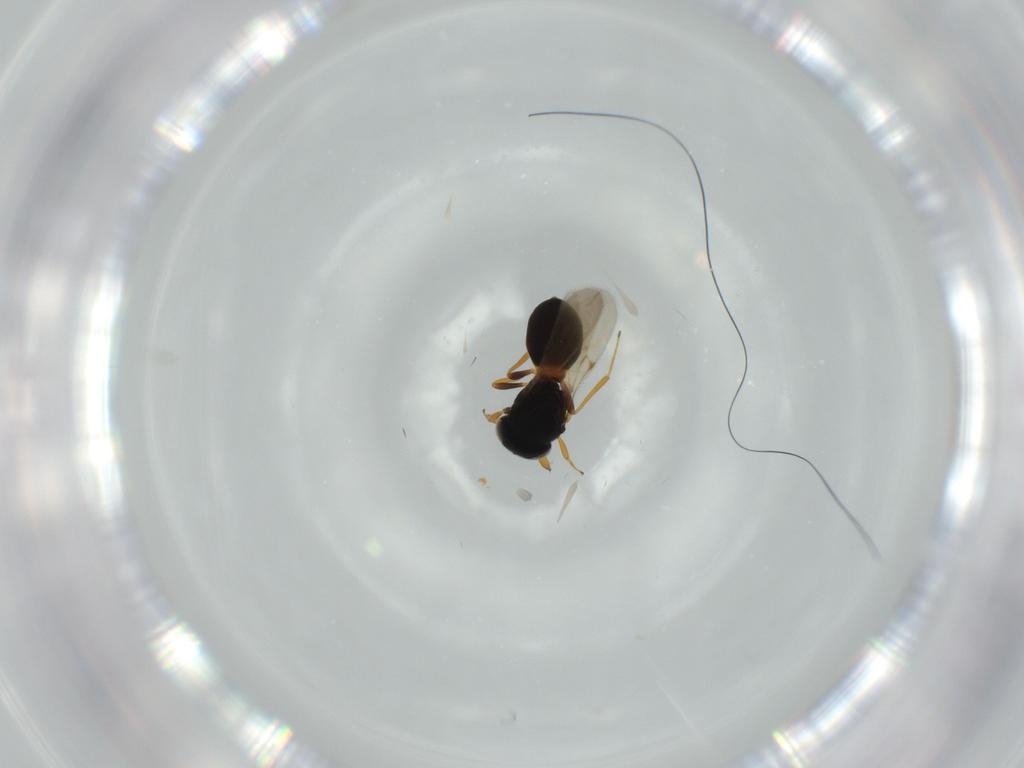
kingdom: Animalia
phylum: Arthropoda
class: Insecta
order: Hymenoptera
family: Scelionidae
